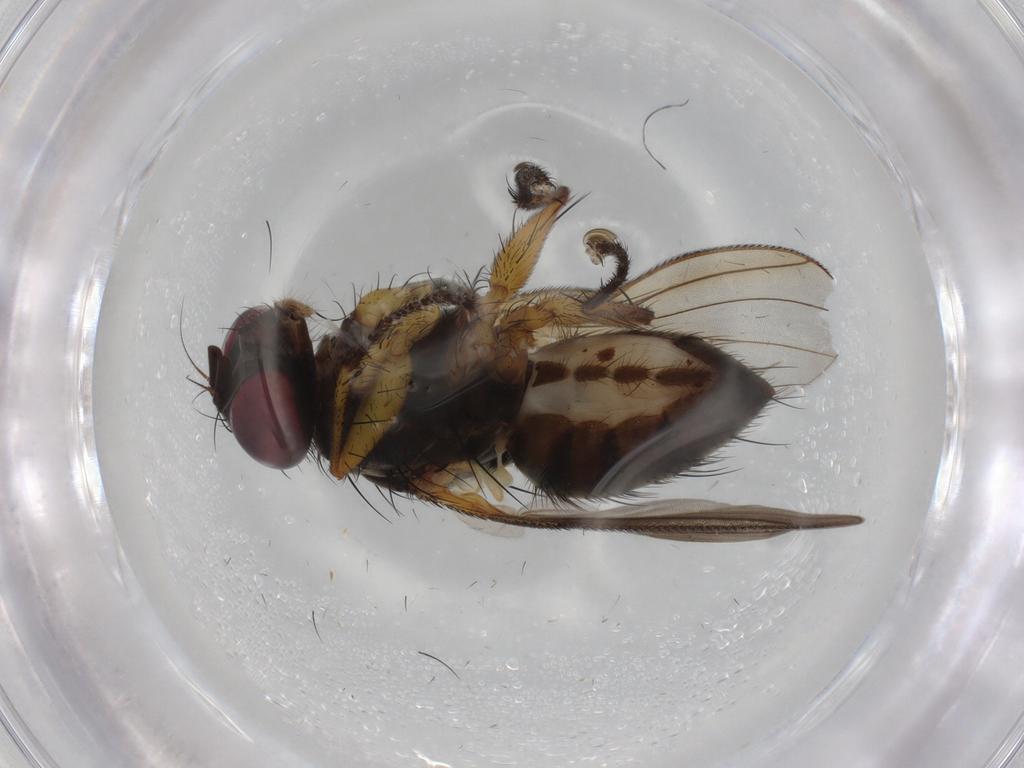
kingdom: Animalia
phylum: Arthropoda
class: Insecta
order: Diptera
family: Muscidae
